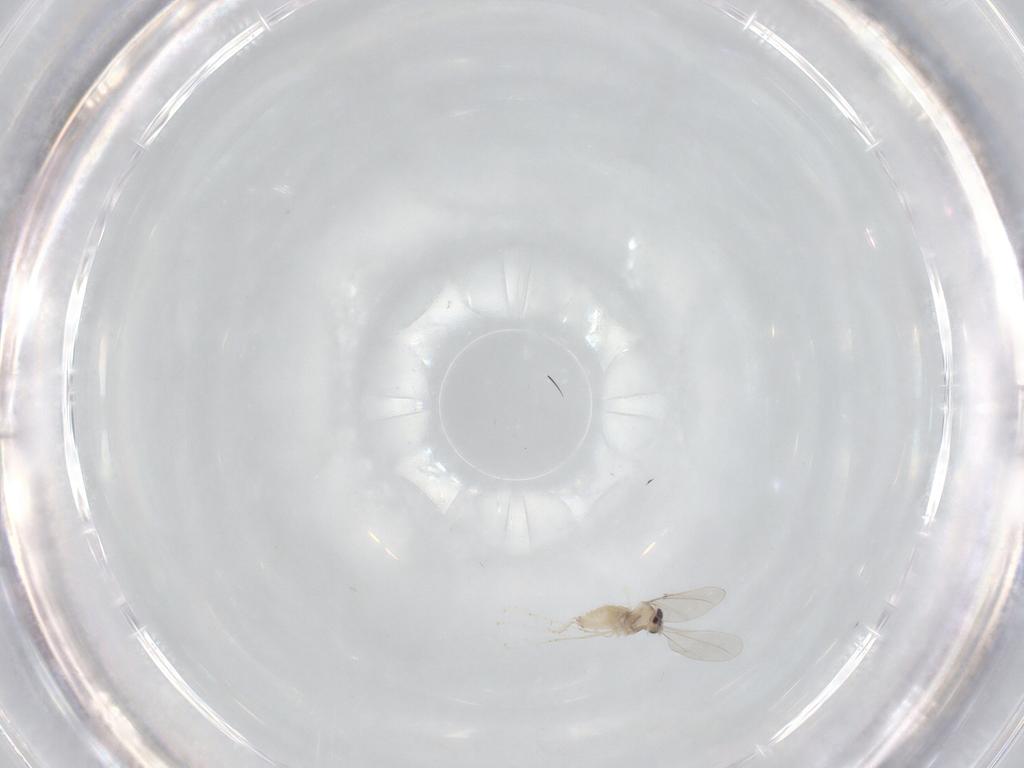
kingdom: Animalia
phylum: Arthropoda
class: Insecta
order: Diptera
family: Cecidomyiidae
